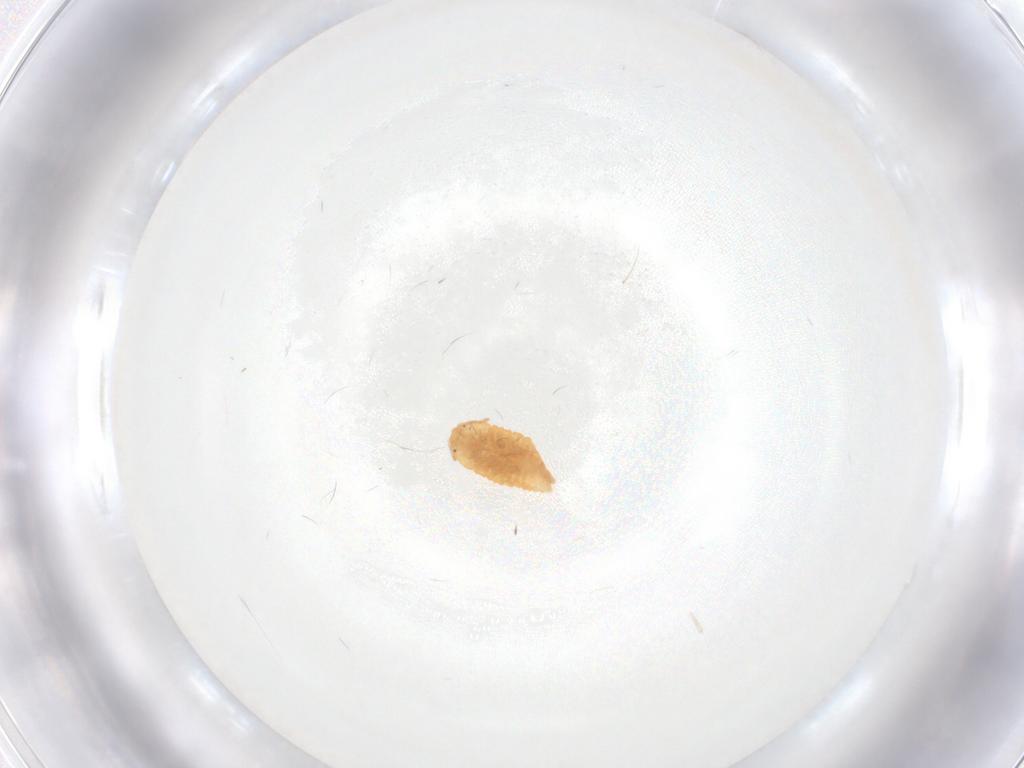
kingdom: Animalia
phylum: Arthropoda
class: Insecta
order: Hemiptera
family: Pseudococcidae
